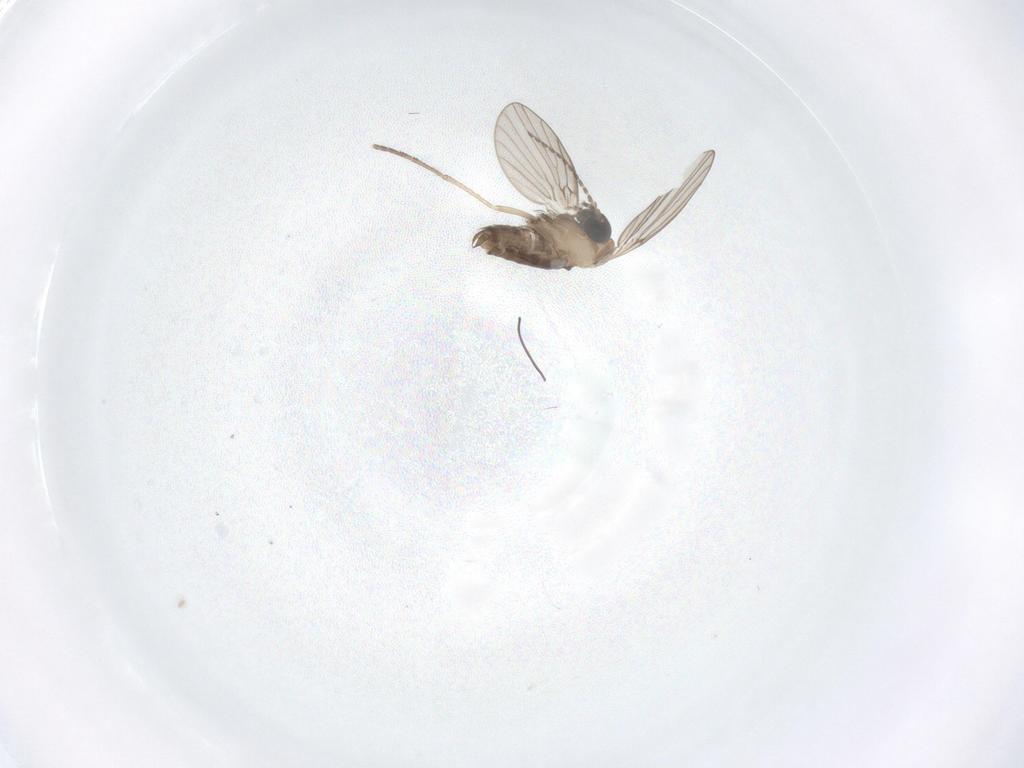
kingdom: Animalia
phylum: Arthropoda
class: Insecta
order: Diptera
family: Psychodidae
